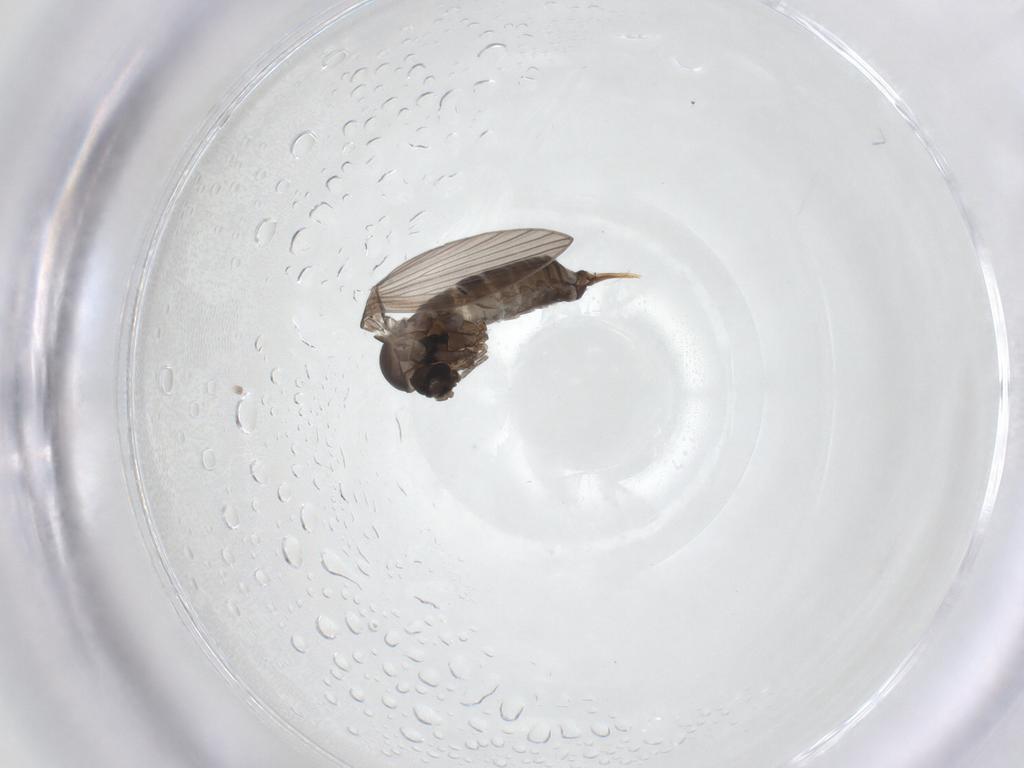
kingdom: Animalia
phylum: Arthropoda
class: Insecta
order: Diptera
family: Psychodidae
